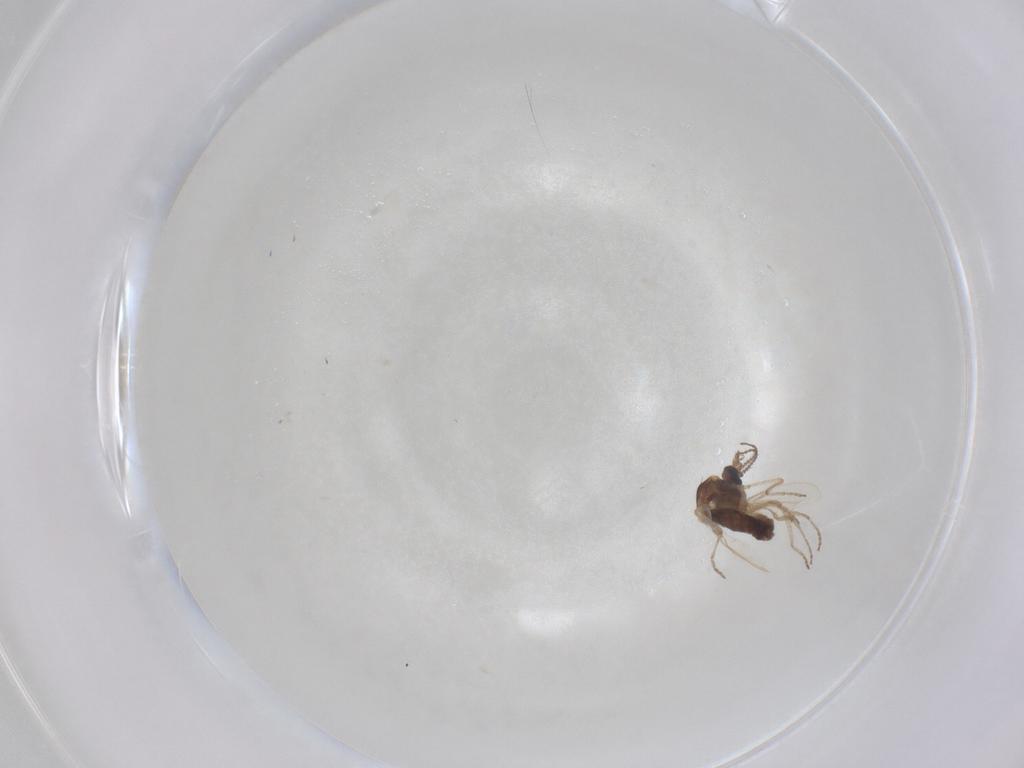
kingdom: Animalia
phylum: Arthropoda
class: Insecta
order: Diptera
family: Ceratopogonidae
